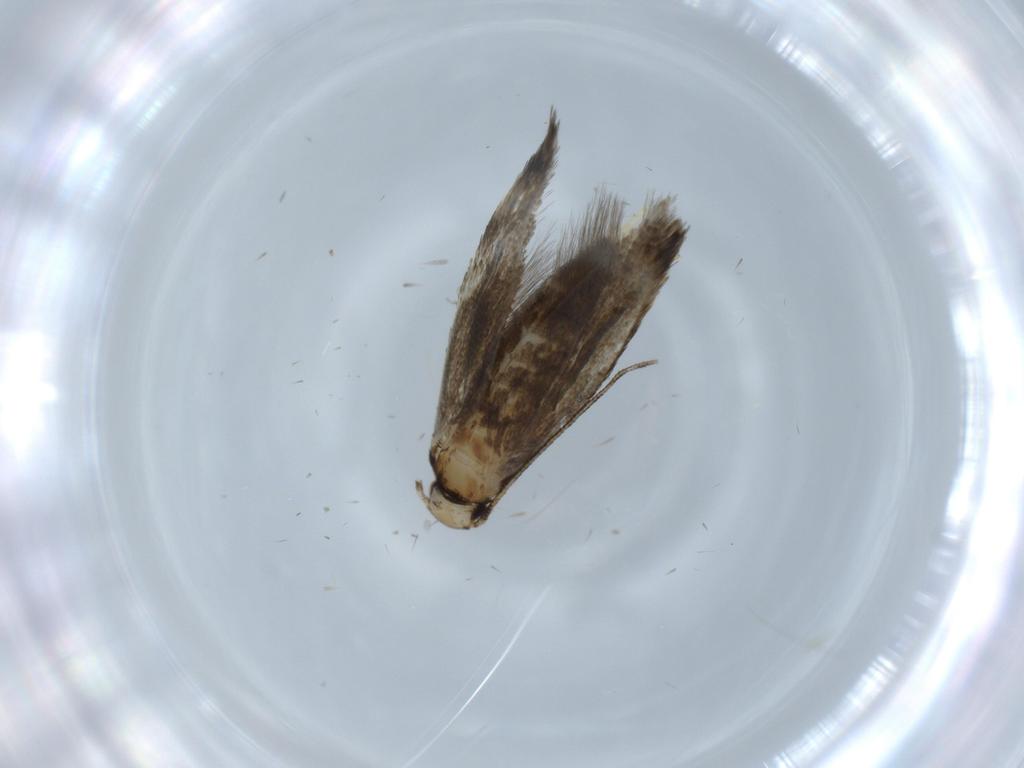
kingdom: Animalia
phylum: Arthropoda
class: Insecta
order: Lepidoptera
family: Tineidae
